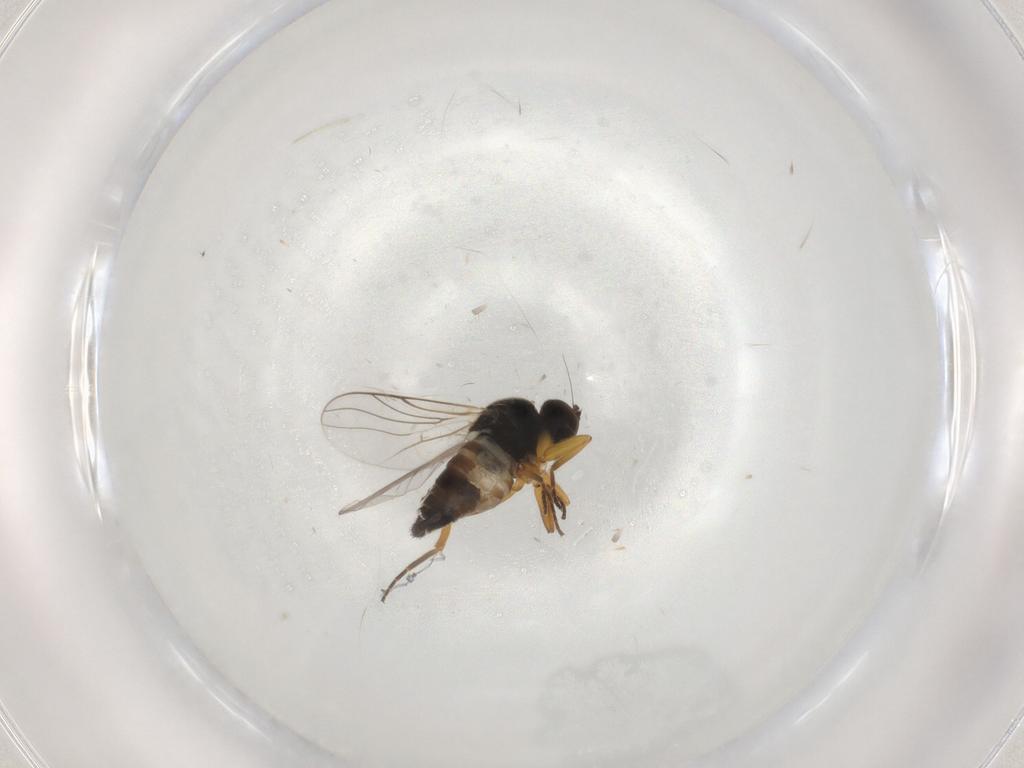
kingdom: Animalia
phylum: Arthropoda
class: Insecta
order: Diptera
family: Hybotidae
